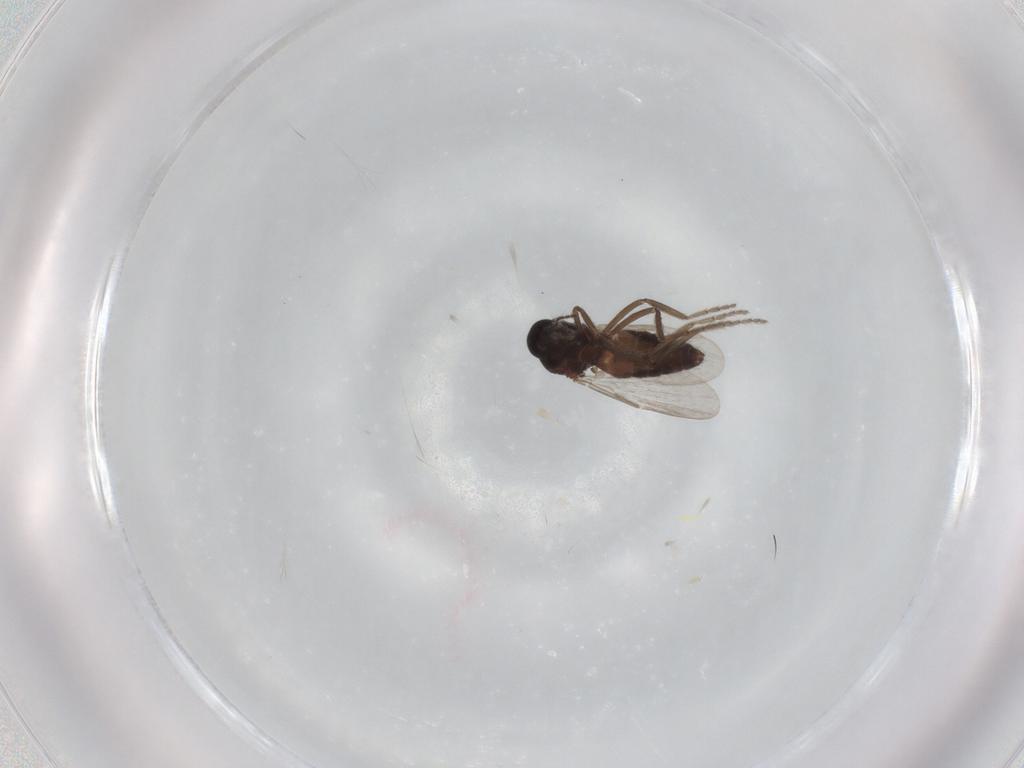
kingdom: Animalia
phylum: Arthropoda
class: Insecta
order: Diptera
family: Ceratopogonidae
